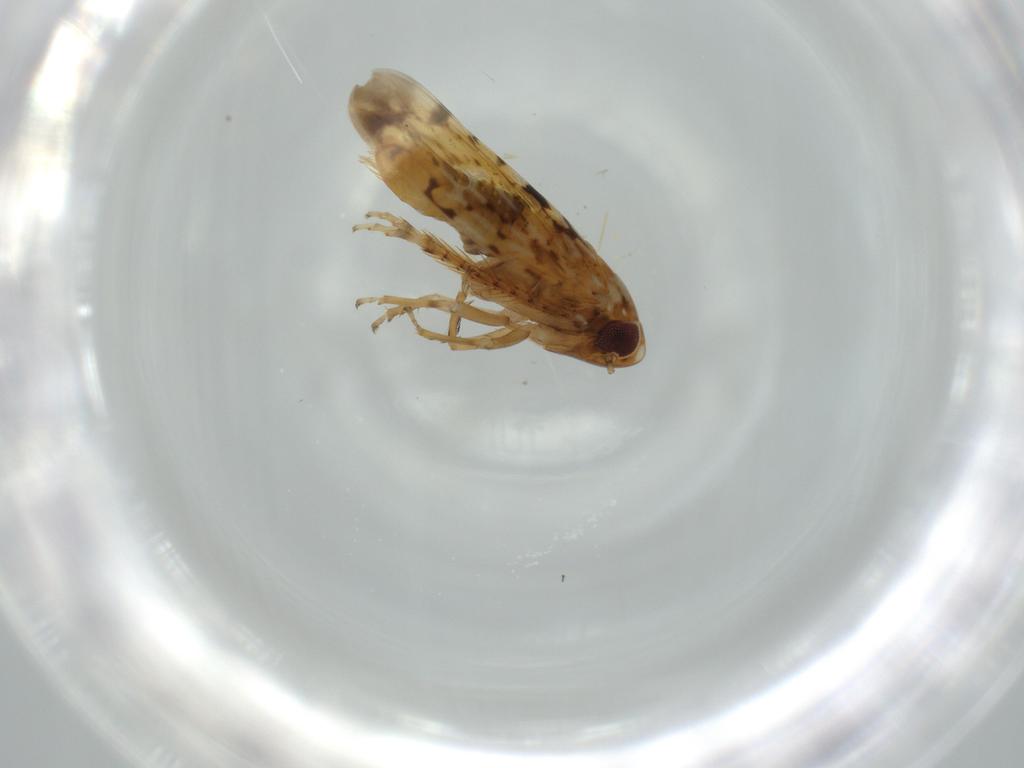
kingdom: Animalia
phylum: Arthropoda
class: Insecta
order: Hemiptera
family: Cicadellidae
